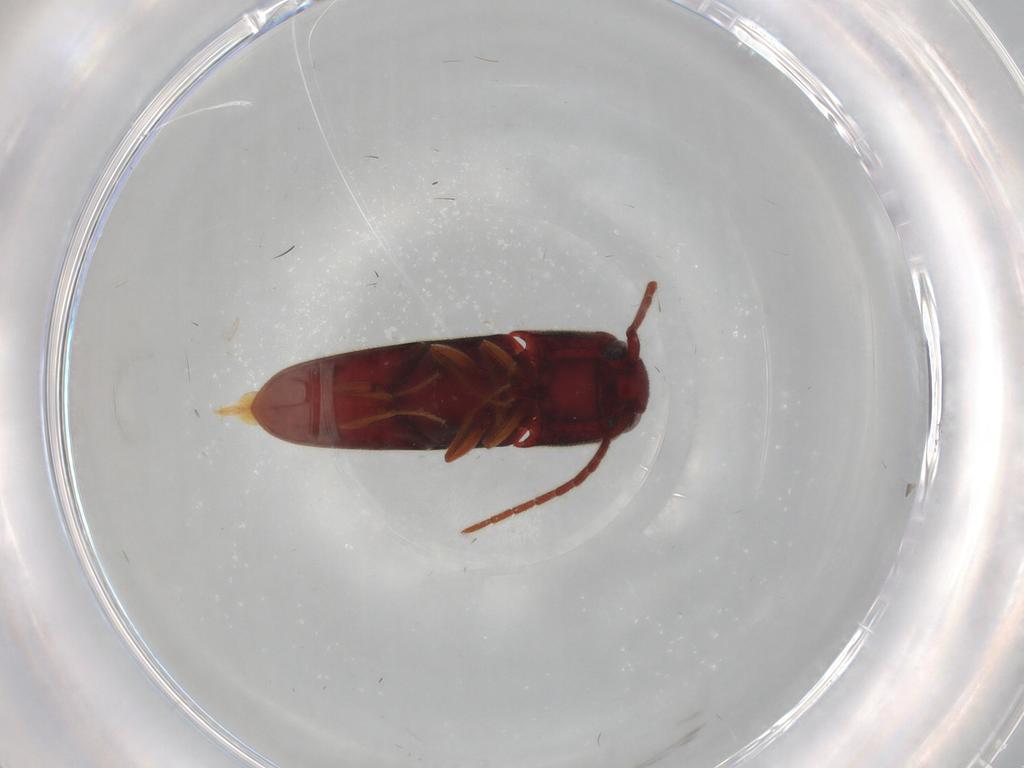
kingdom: Animalia
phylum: Arthropoda
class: Insecta
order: Coleoptera
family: Eucnemidae
